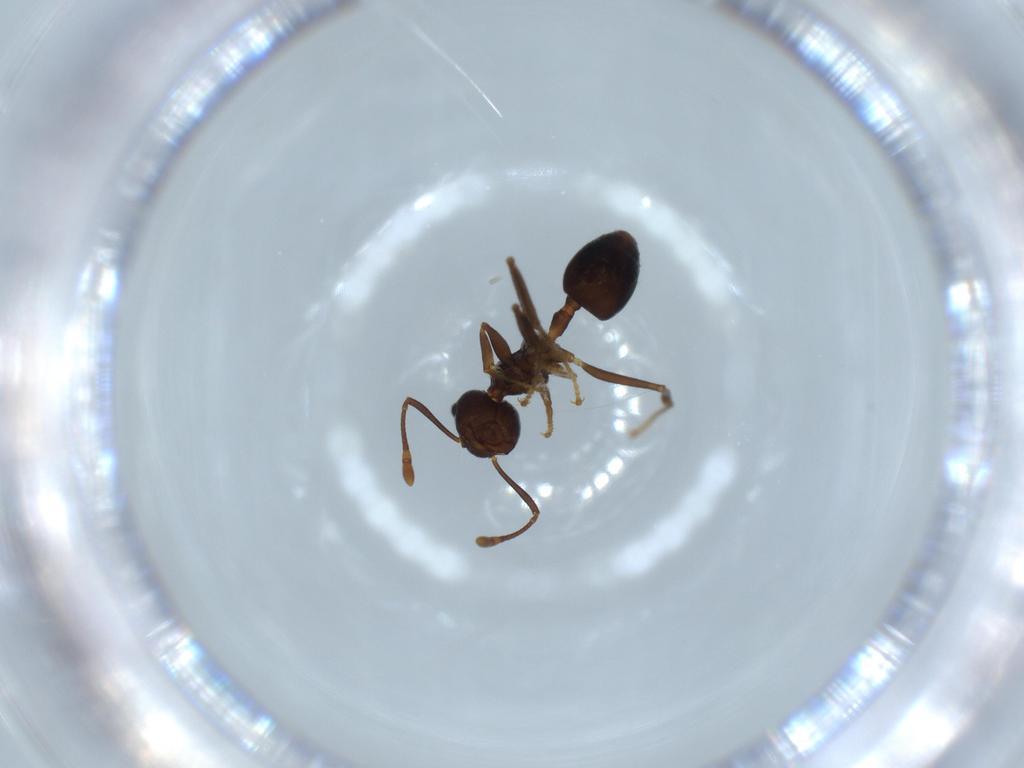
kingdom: Animalia
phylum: Arthropoda
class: Insecta
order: Hymenoptera
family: Formicidae
